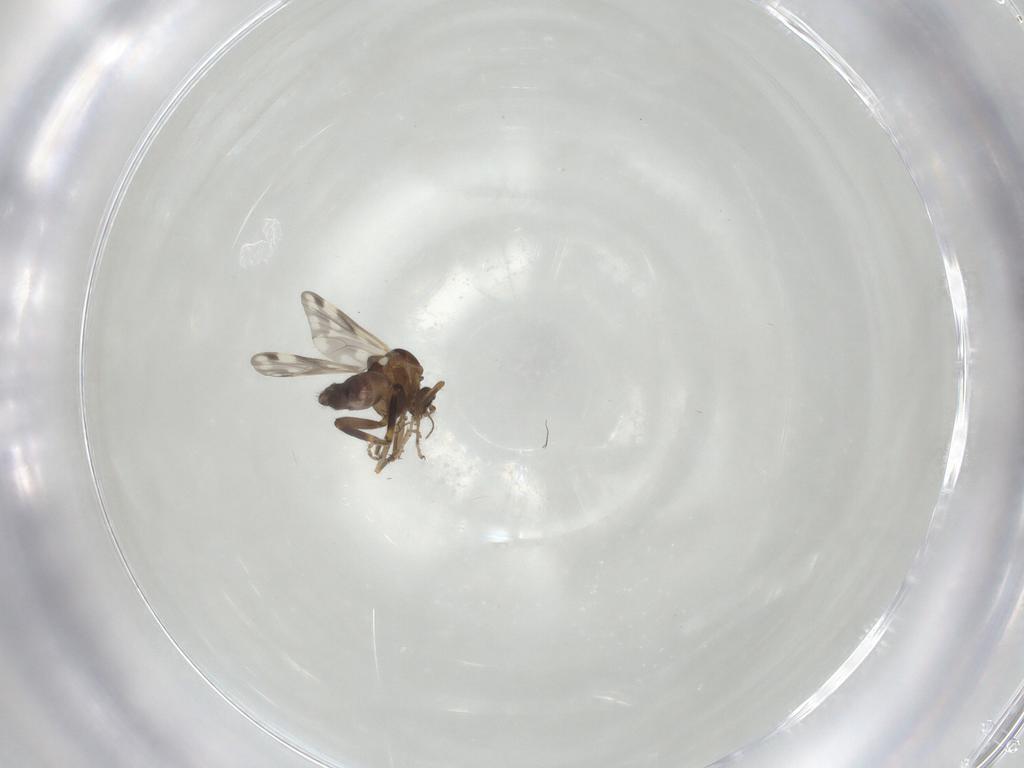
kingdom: Animalia
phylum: Arthropoda
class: Insecta
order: Diptera
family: Ceratopogonidae
